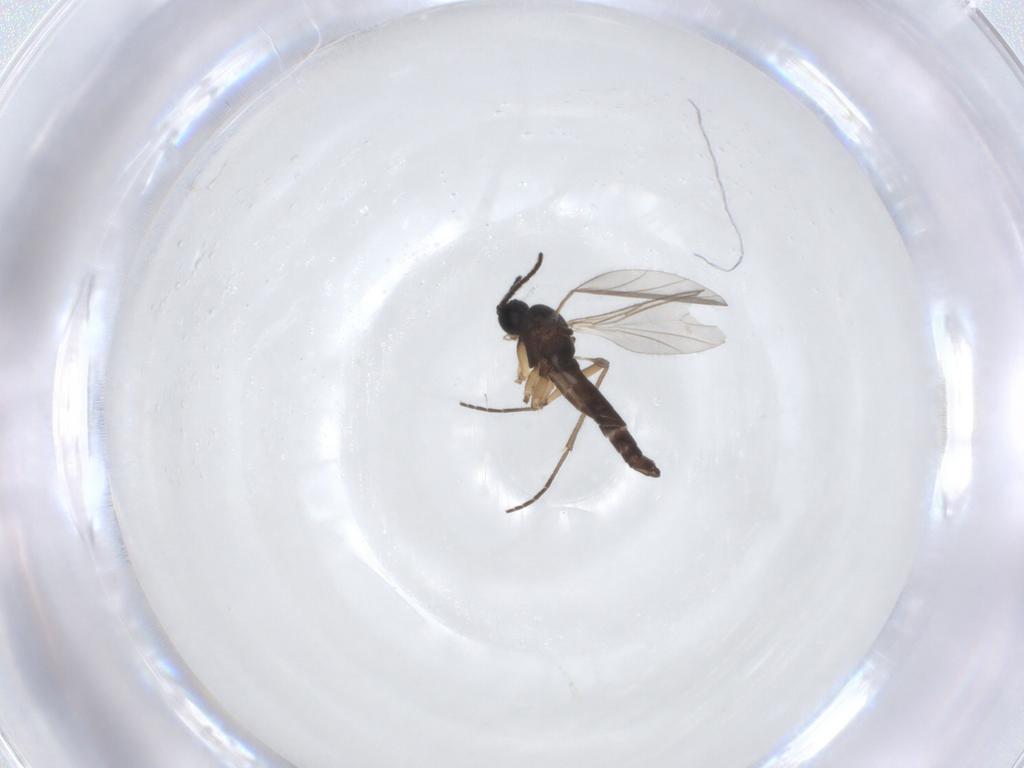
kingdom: Animalia
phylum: Arthropoda
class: Insecta
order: Diptera
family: Sciaridae
